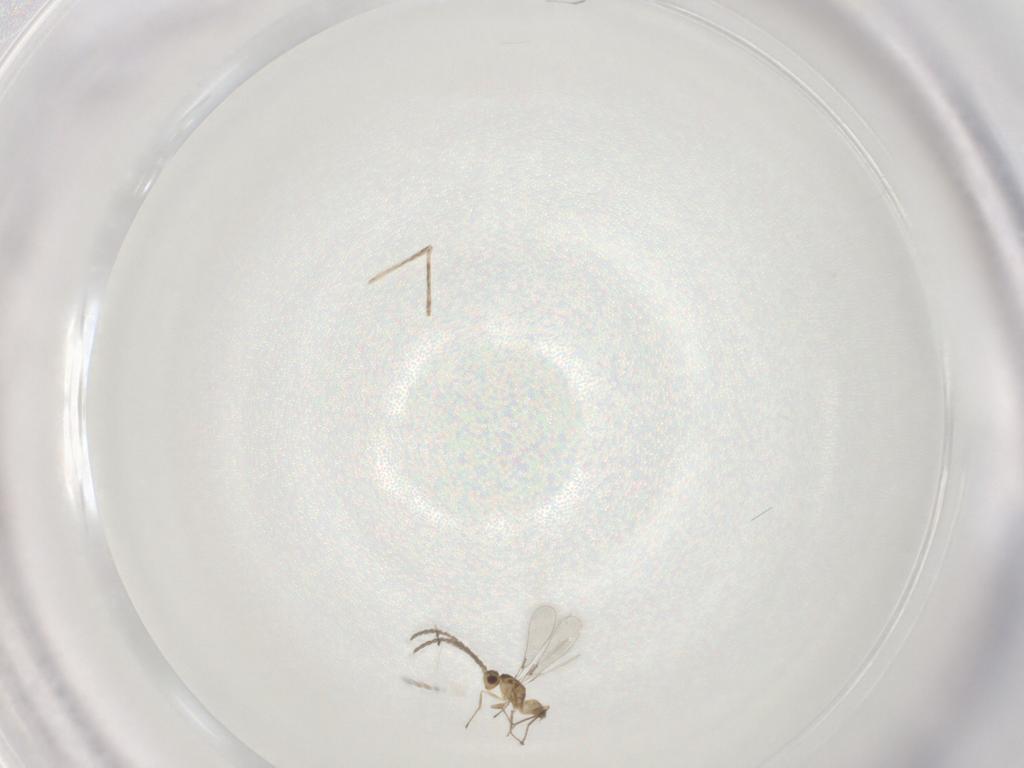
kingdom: Animalia
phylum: Arthropoda
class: Insecta
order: Hymenoptera
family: Mymaridae
